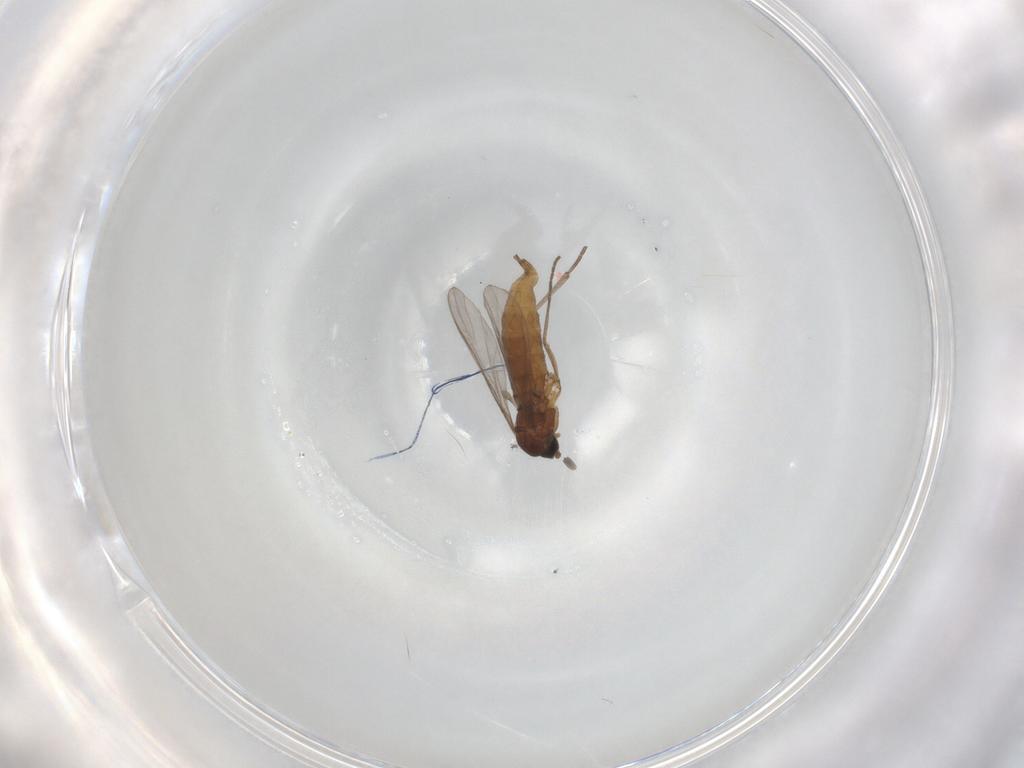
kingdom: Animalia
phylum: Arthropoda
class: Insecta
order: Diptera
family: Sciaridae
